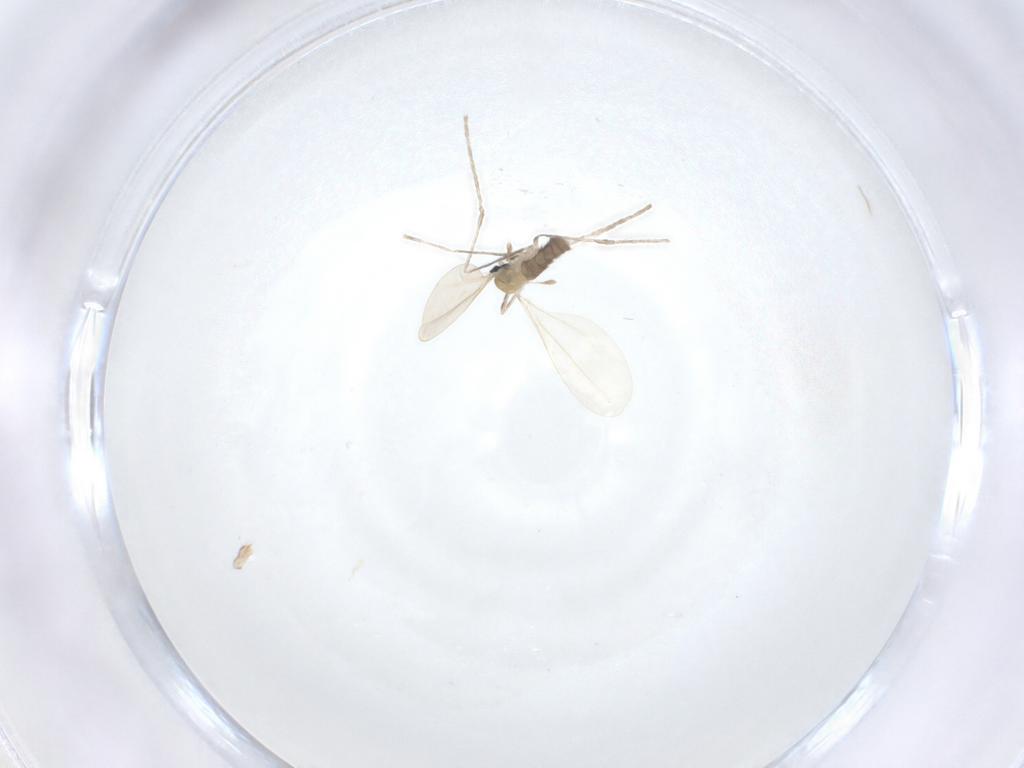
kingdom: Animalia
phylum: Arthropoda
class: Insecta
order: Diptera
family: Cecidomyiidae
